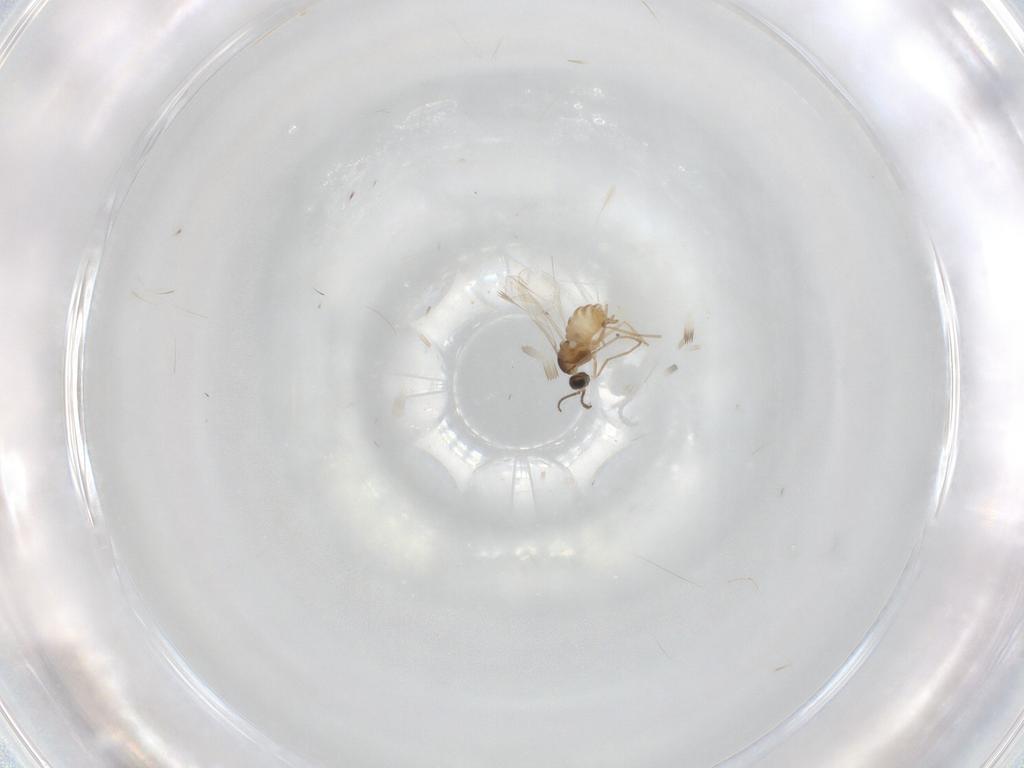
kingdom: Animalia
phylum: Arthropoda
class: Insecta
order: Diptera
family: Cecidomyiidae
